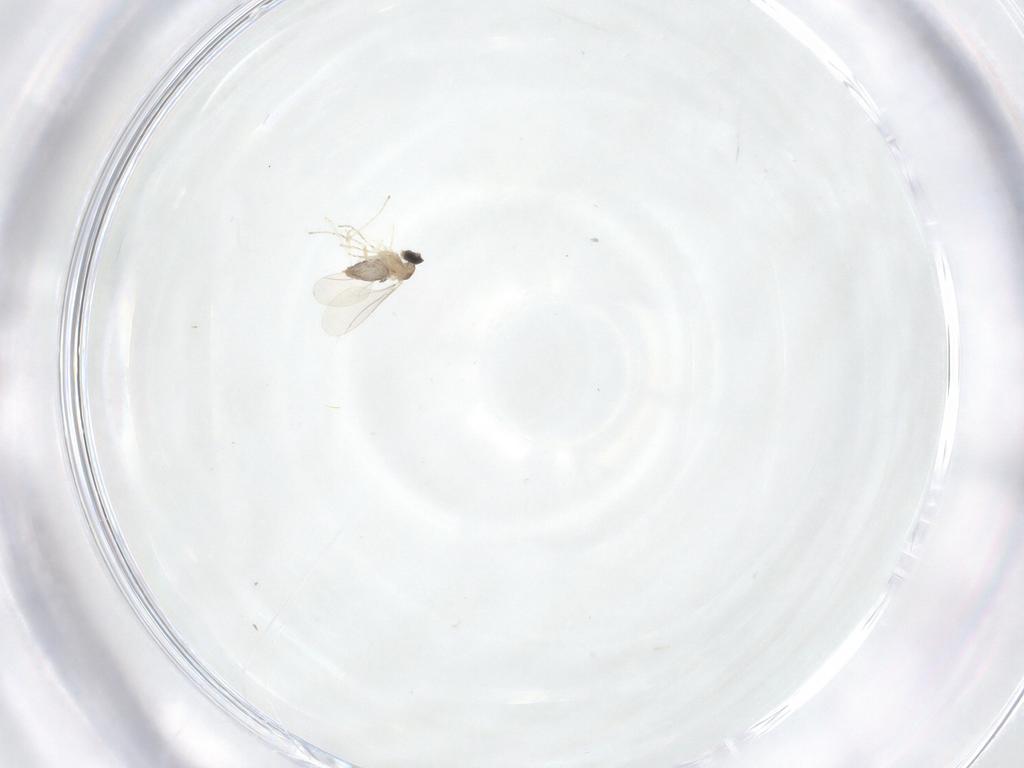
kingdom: Animalia
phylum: Arthropoda
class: Insecta
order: Diptera
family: Cecidomyiidae
